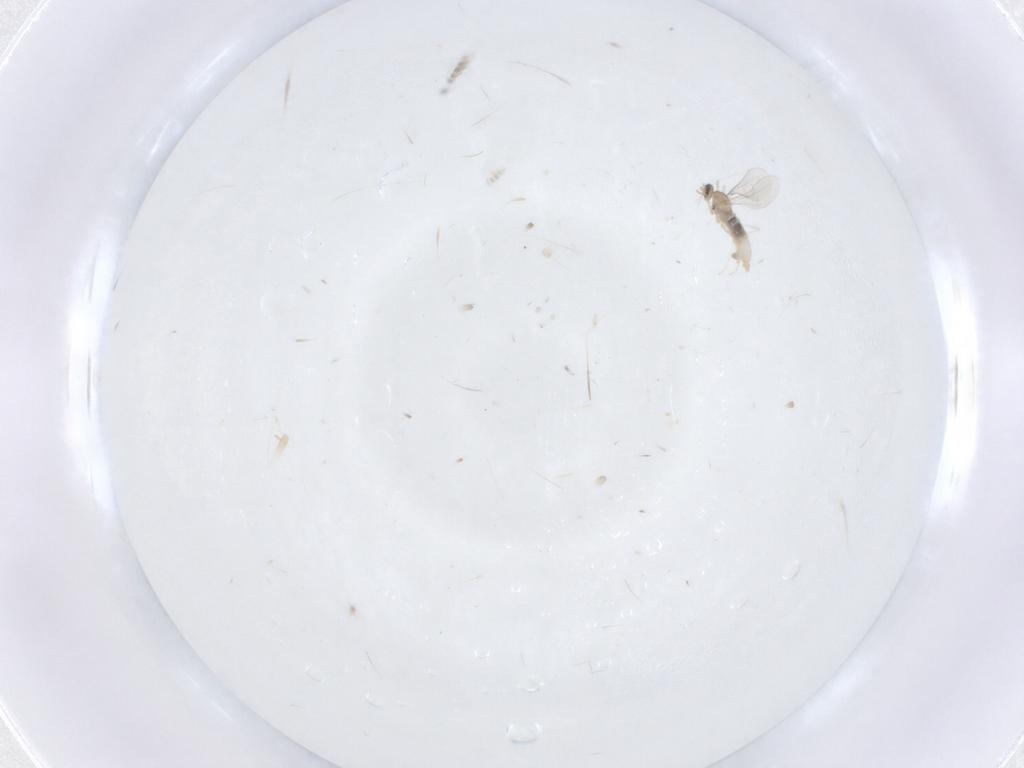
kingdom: Animalia
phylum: Arthropoda
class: Insecta
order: Diptera
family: Cecidomyiidae
